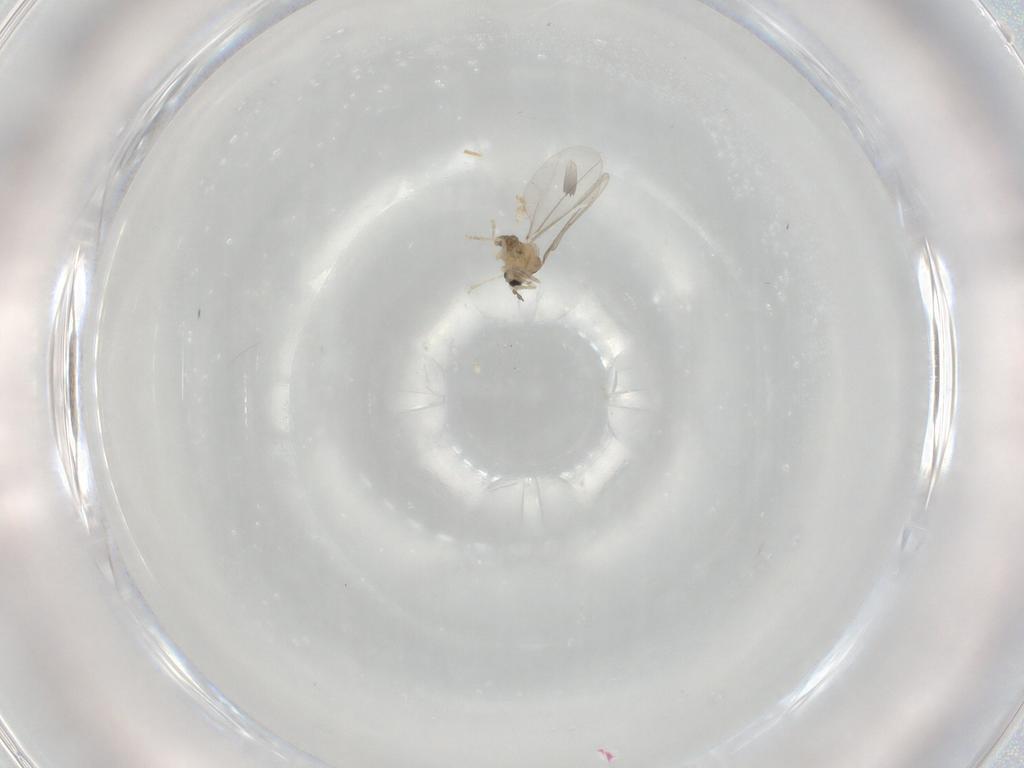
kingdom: Animalia
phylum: Arthropoda
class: Insecta
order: Diptera
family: Cecidomyiidae
